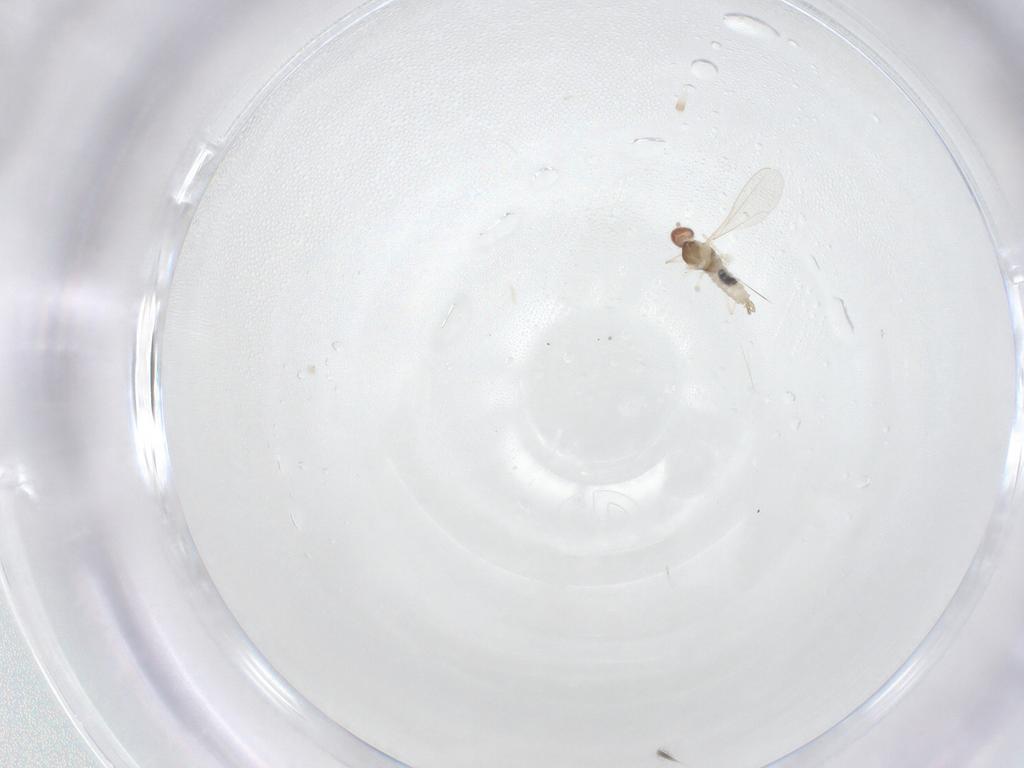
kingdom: Animalia
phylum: Arthropoda
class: Insecta
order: Diptera
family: Cecidomyiidae
